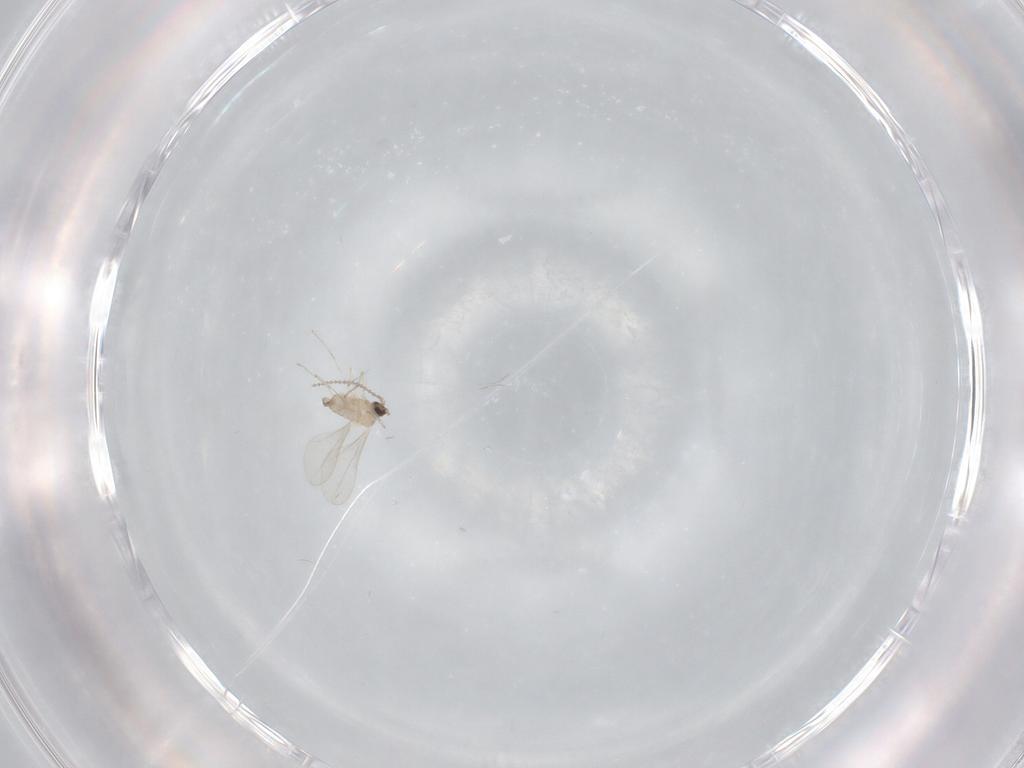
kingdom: Animalia
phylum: Arthropoda
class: Insecta
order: Diptera
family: Cecidomyiidae
